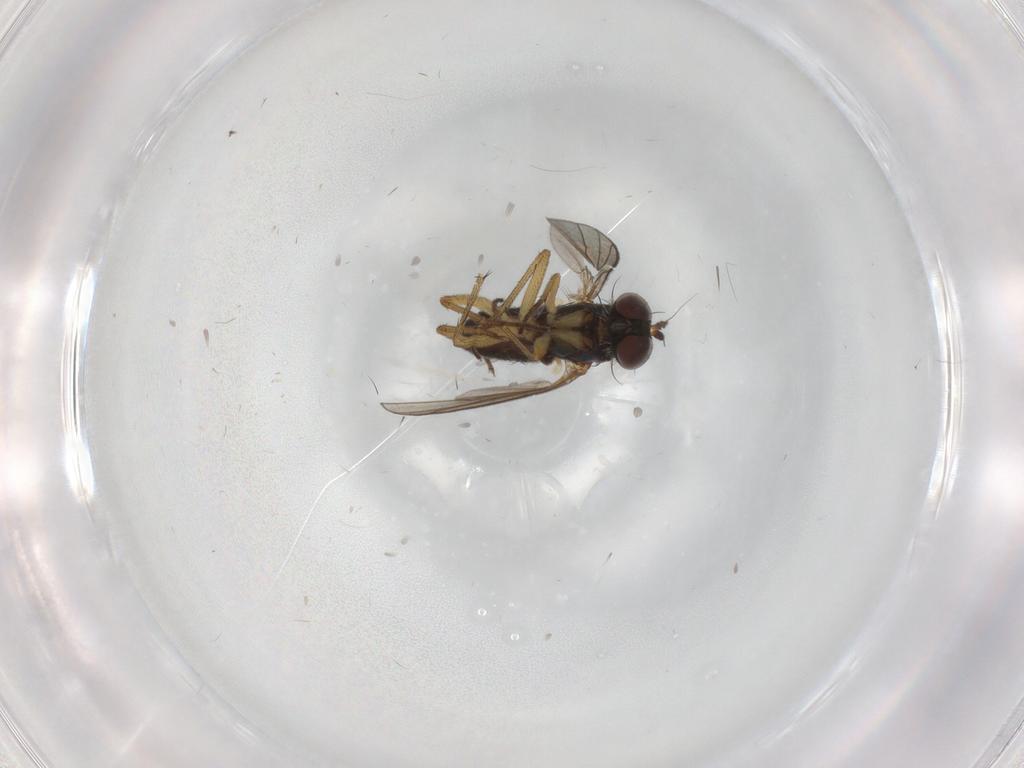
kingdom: Animalia
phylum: Arthropoda
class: Insecta
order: Diptera
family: Dolichopodidae
